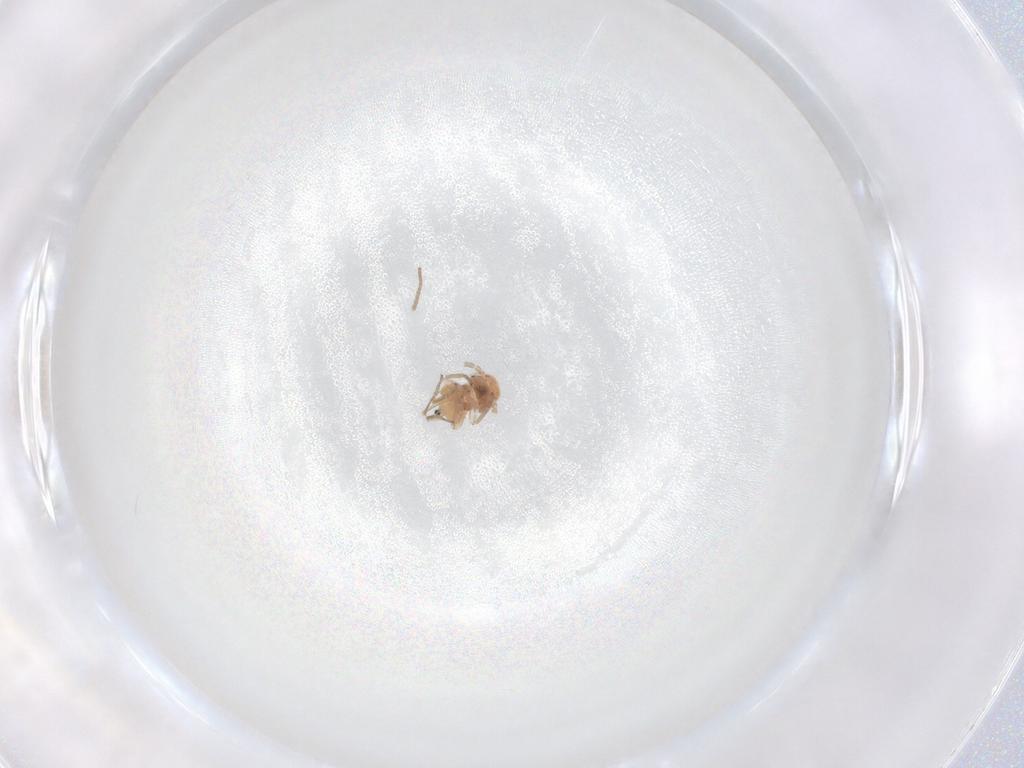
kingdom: Animalia
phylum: Arthropoda
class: Insecta
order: Psocodea
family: Caeciliusidae
